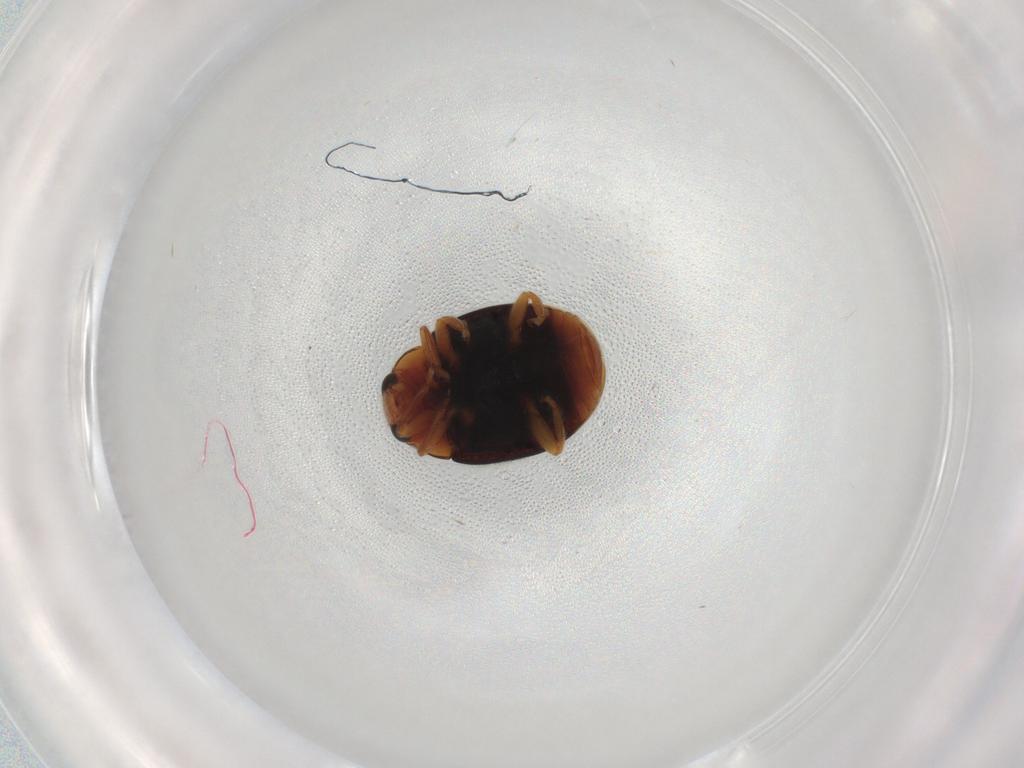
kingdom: Animalia
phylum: Arthropoda
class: Insecta
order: Coleoptera
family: Coccinellidae
